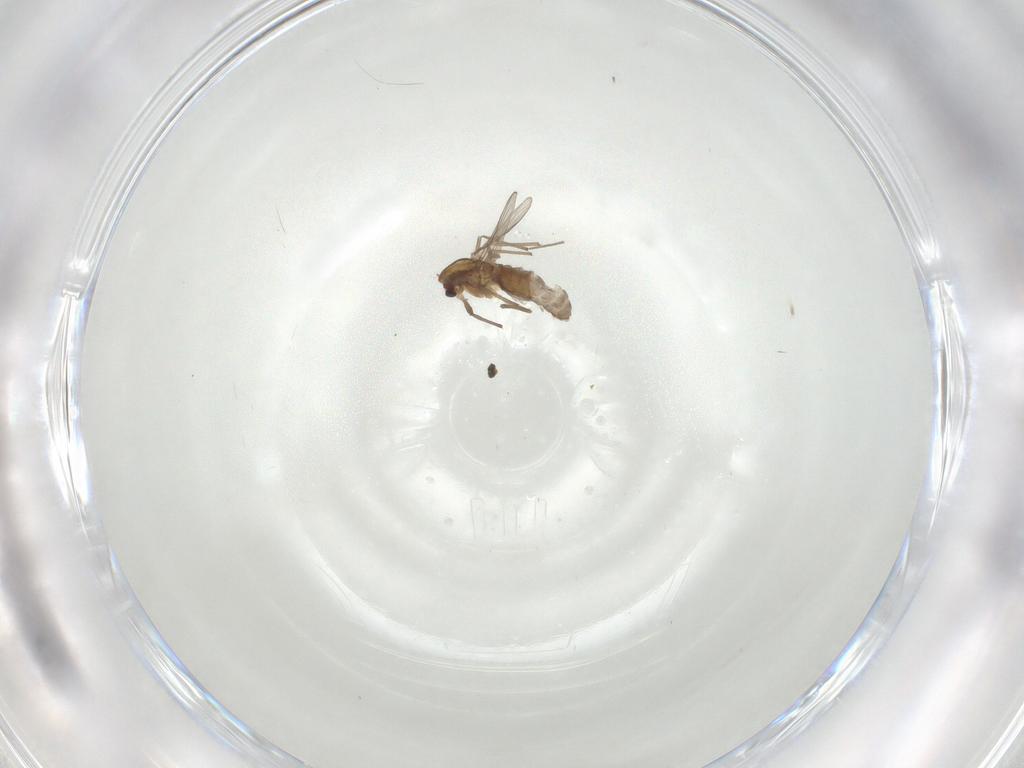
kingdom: Animalia
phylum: Arthropoda
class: Insecta
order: Diptera
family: Chironomidae
